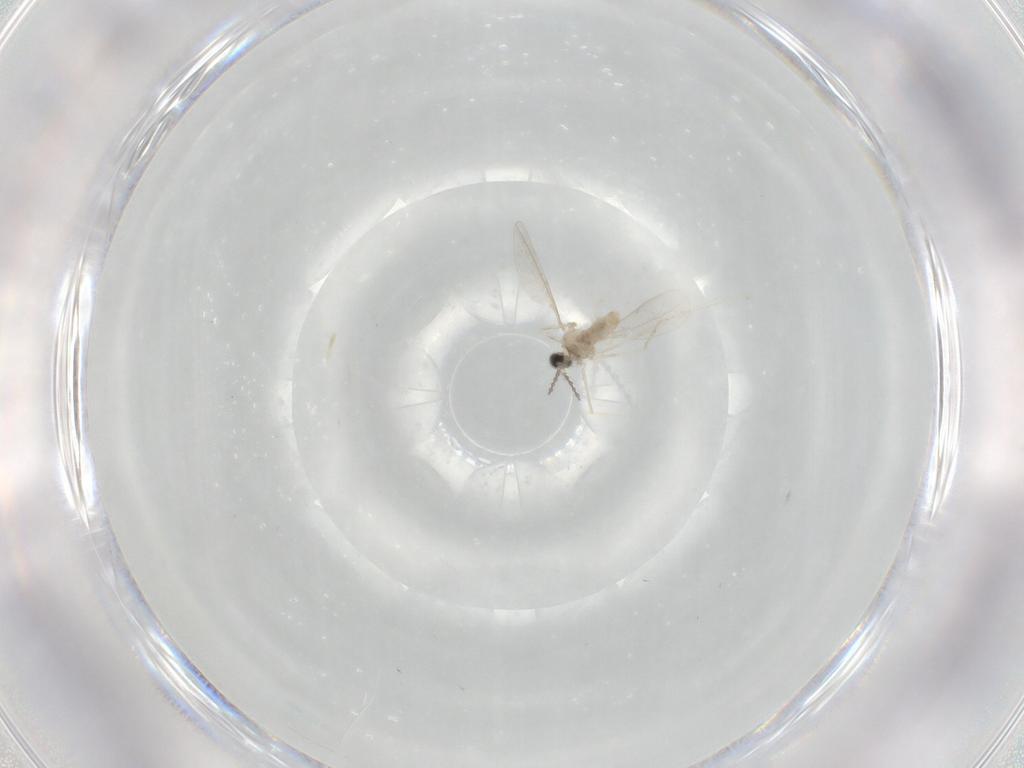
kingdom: Animalia
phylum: Arthropoda
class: Insecta
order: Diptera
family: Cecidomyiidae
